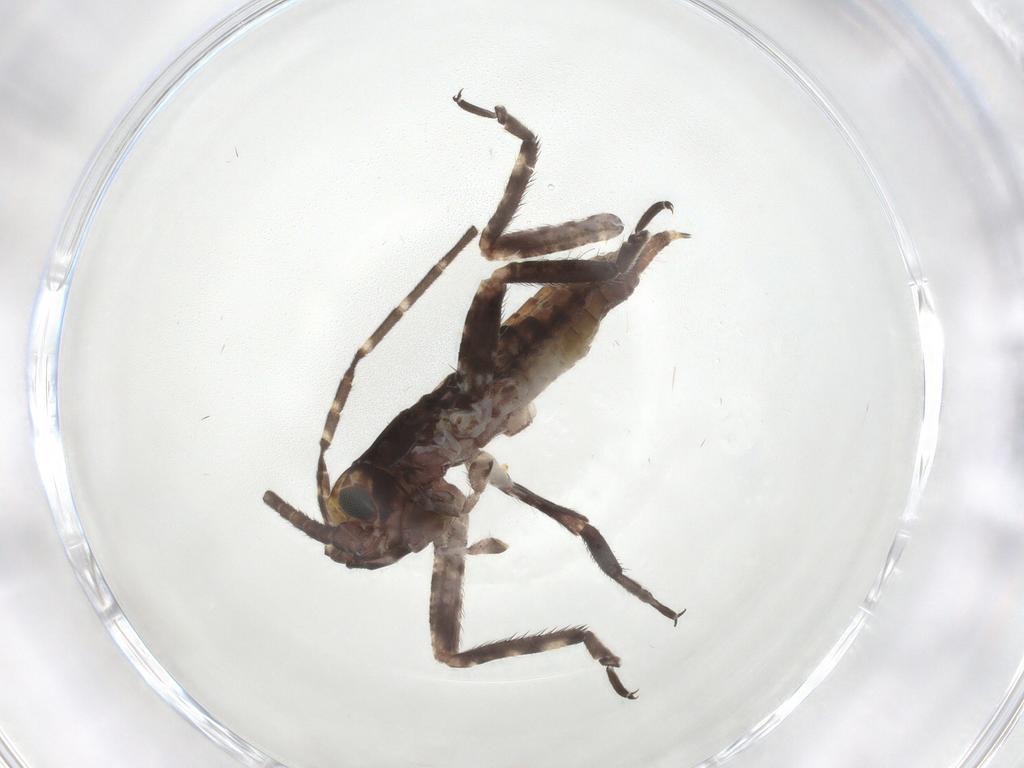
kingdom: Animalia
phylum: Arthropoda
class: Insecta
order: Orthoptera
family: Gryllidae
